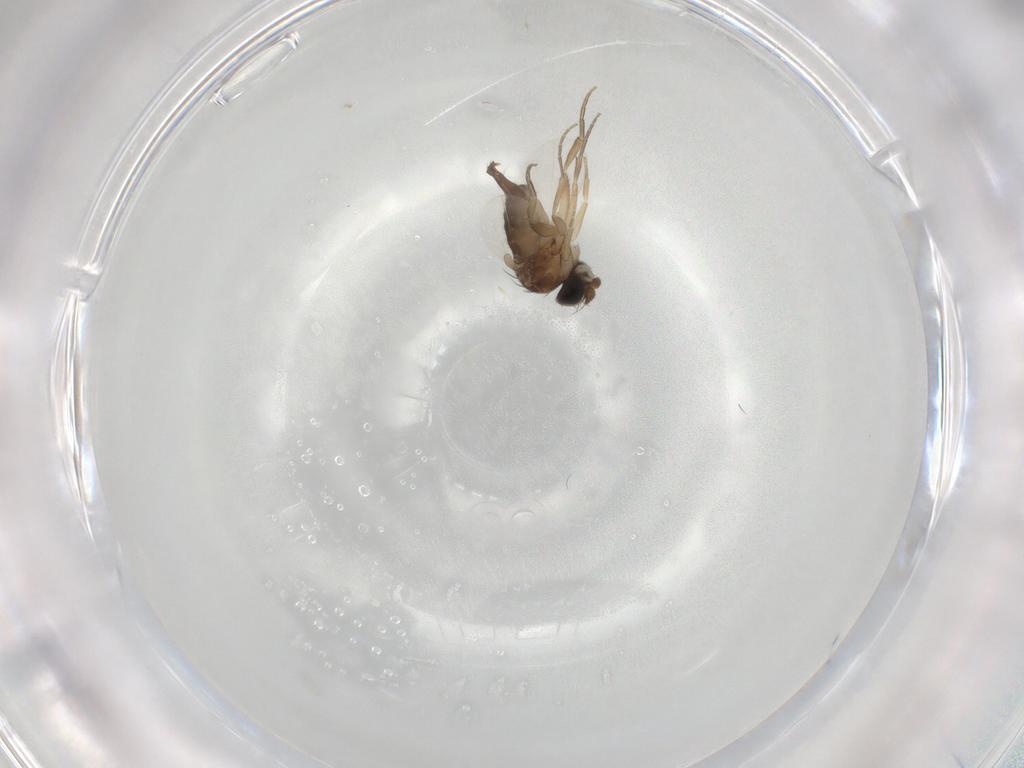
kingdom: Animalia
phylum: Arthropoda
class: Insecta
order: Diptera
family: Phoridae
